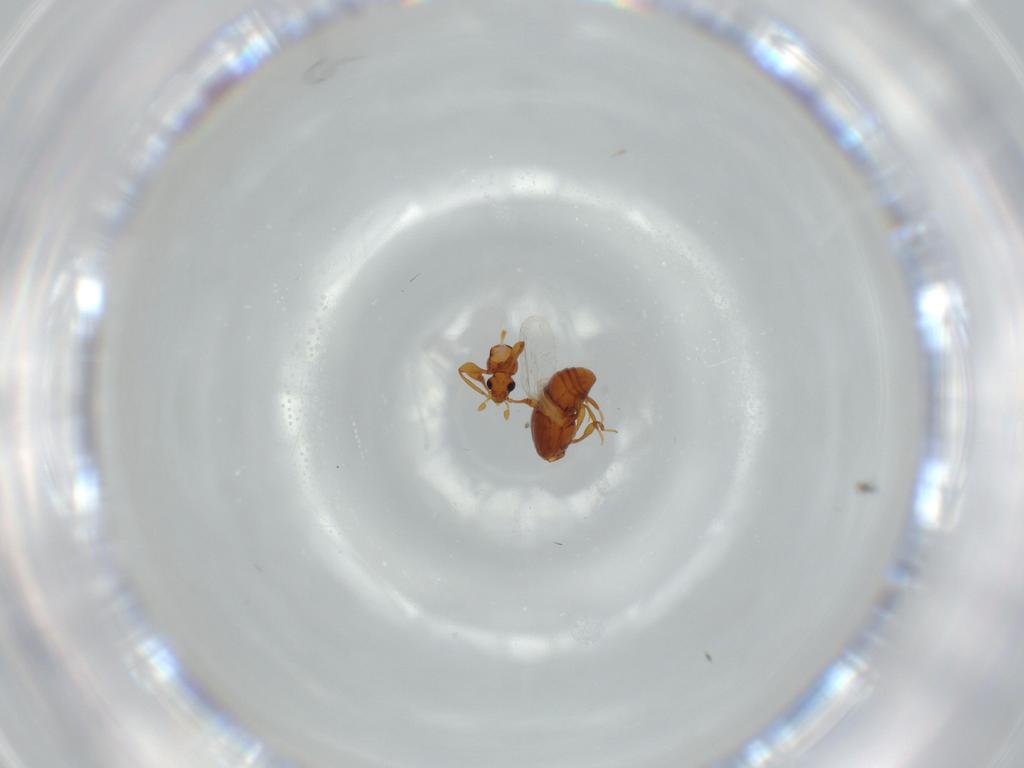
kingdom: Animalia
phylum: Arthropoda
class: Insecta
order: Coleoptera
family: Staphylinidae
